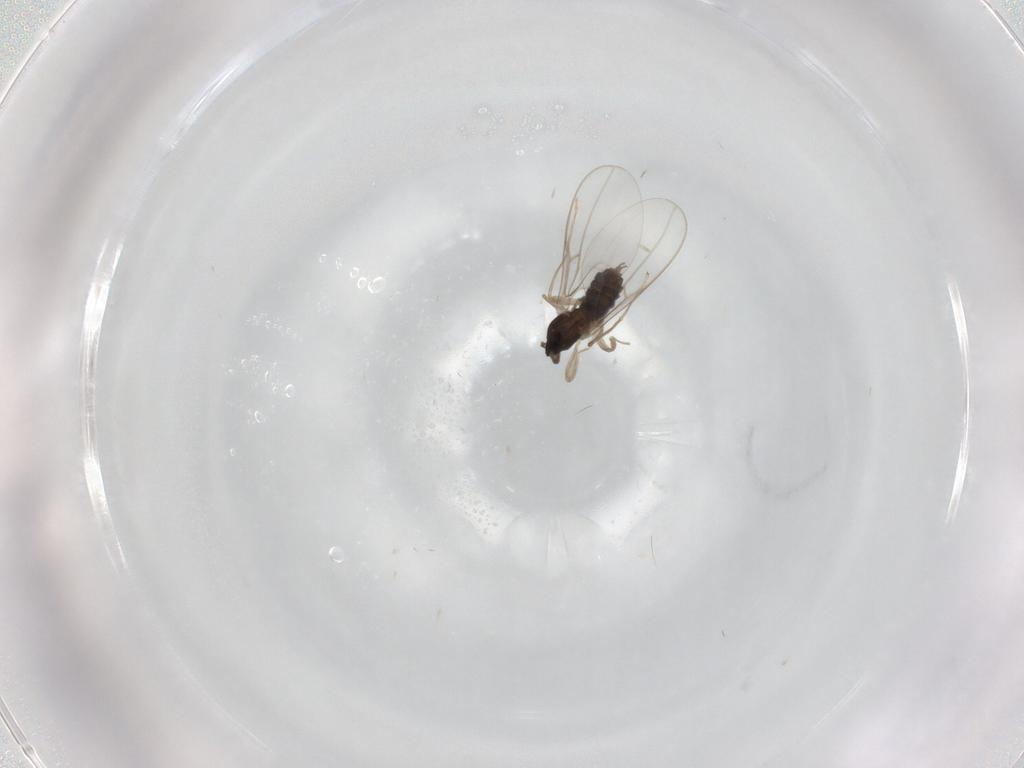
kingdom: Animalia
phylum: Arthropoda
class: Insecta
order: Diptera
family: Cecidomyiidae
